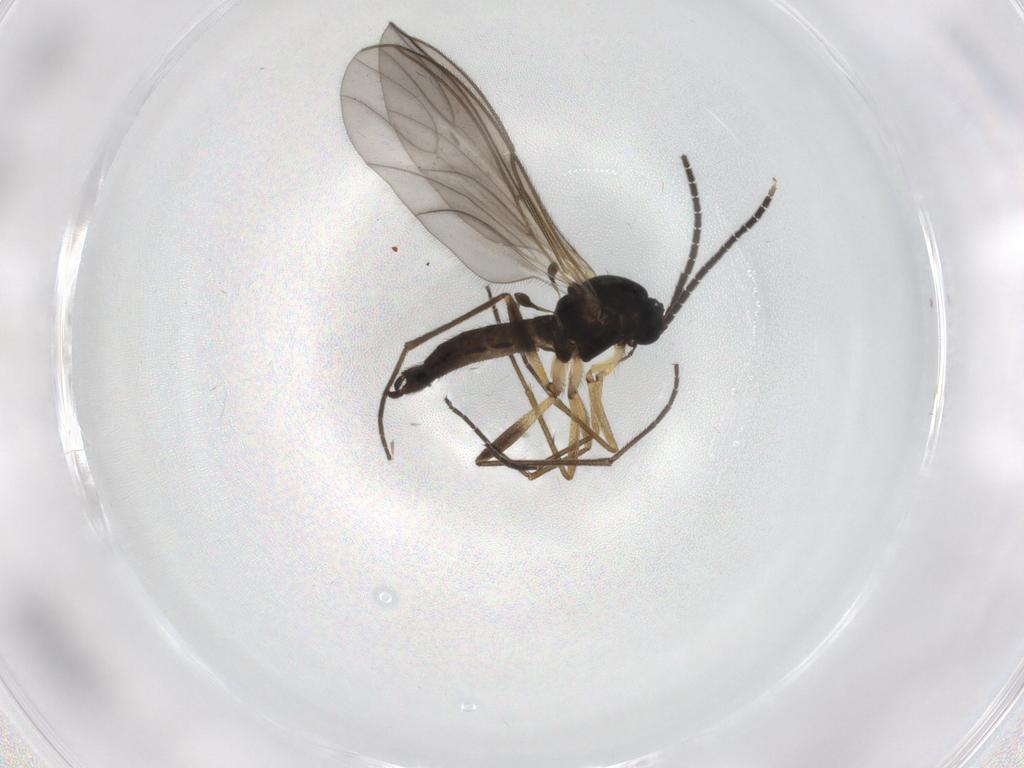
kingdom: Animalia
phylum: Arthropoda
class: Insecta
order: Diptera
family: Sciaridae
